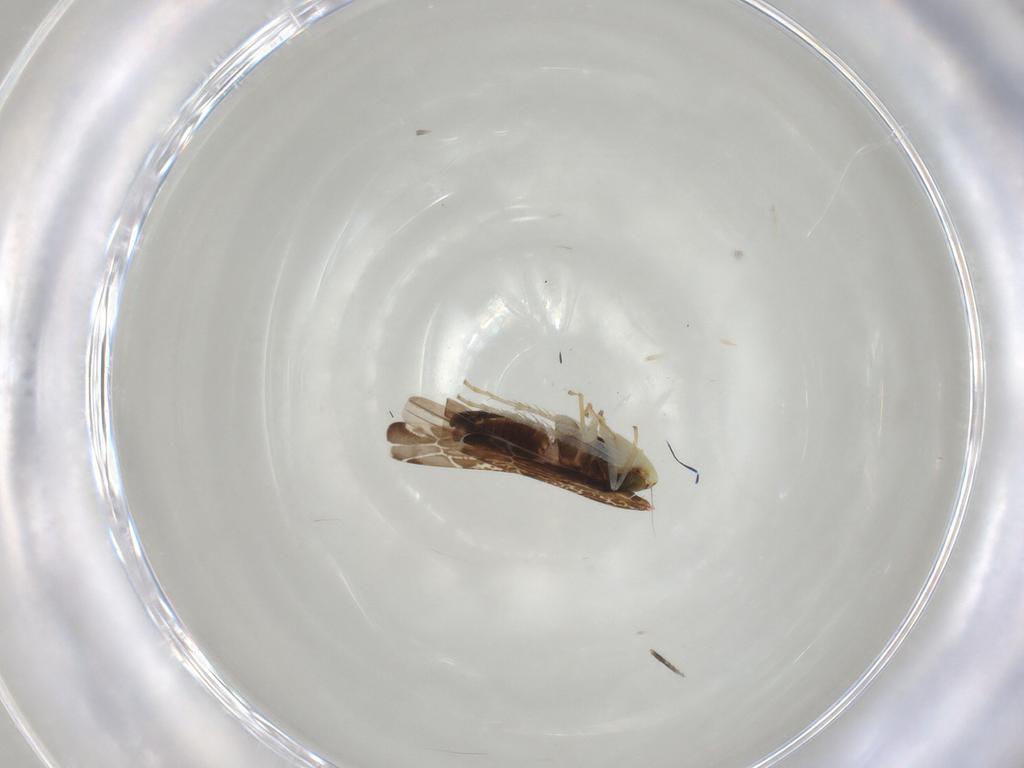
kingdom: Animalia
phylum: Arthropoda
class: Insecta
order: Hemiptera
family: Cicadellidae
